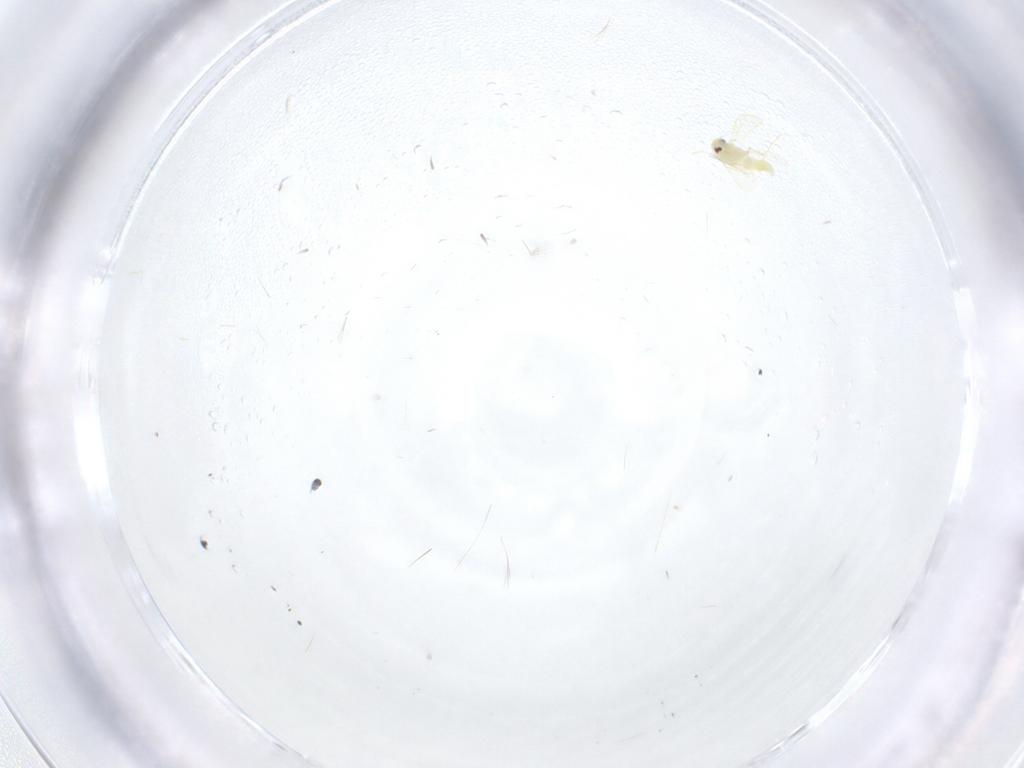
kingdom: Animalia
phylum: Arthropoda
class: Insecta
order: Hemiptera
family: Aleyrodidae
